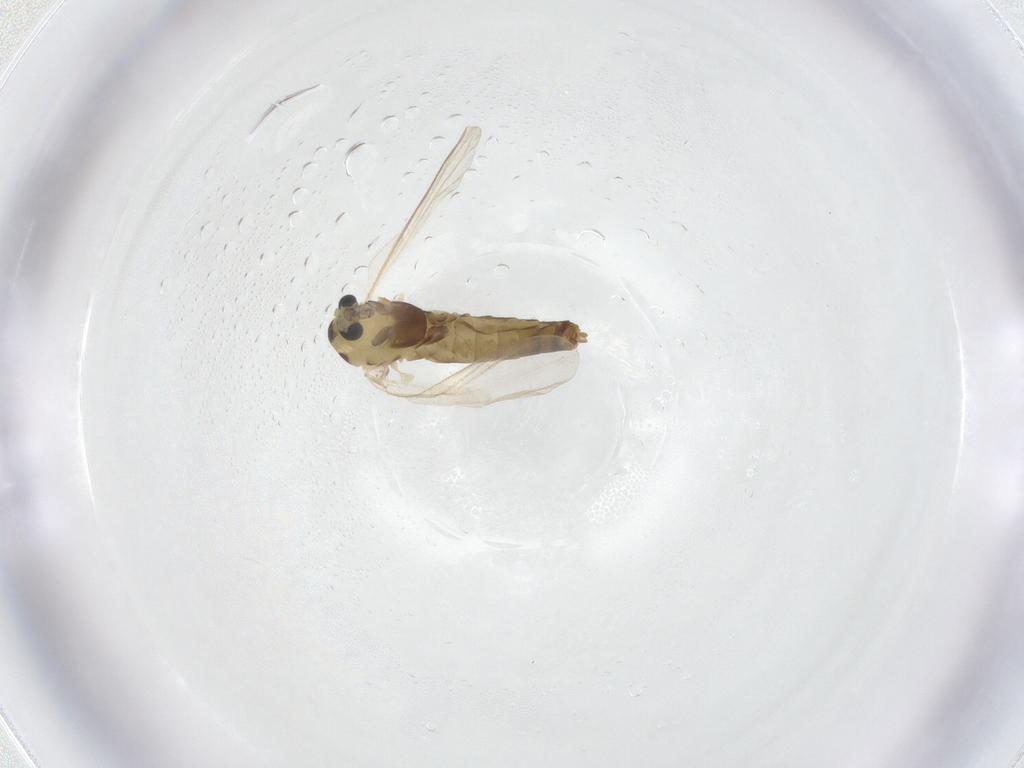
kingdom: Animalia
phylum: Arthropoda
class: Insecta
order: Diptera
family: Chironomidae
